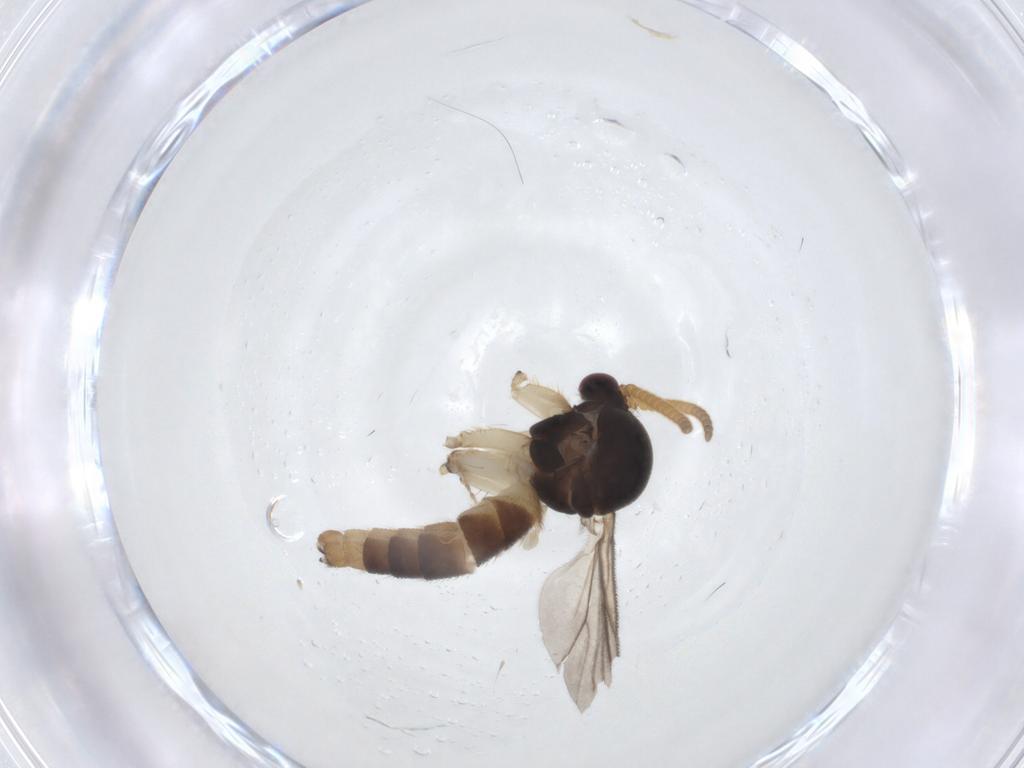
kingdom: Animalia
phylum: Arthropoda
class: Insecta
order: Diptera
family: Mycetophilidae
